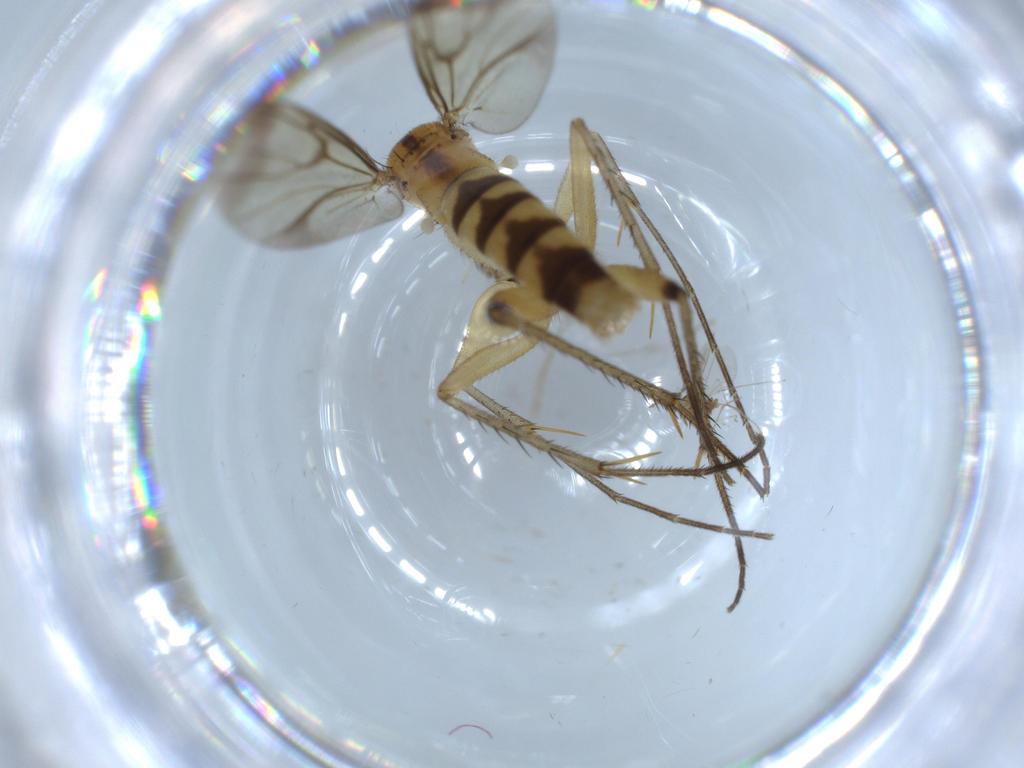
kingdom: Animalia
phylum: Arthropoda
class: Insecta
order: Diptera
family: Mycetophilidae
